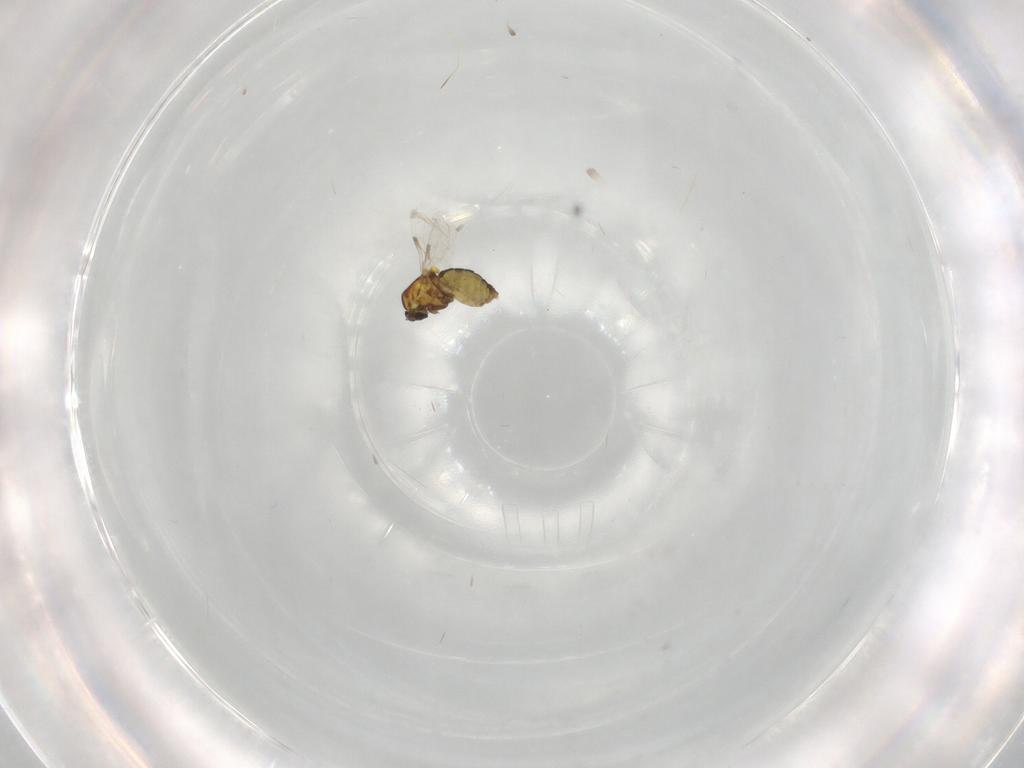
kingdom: Animalia
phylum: Arthropoda
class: Insecta
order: Diptera
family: Ceratopogonidae
